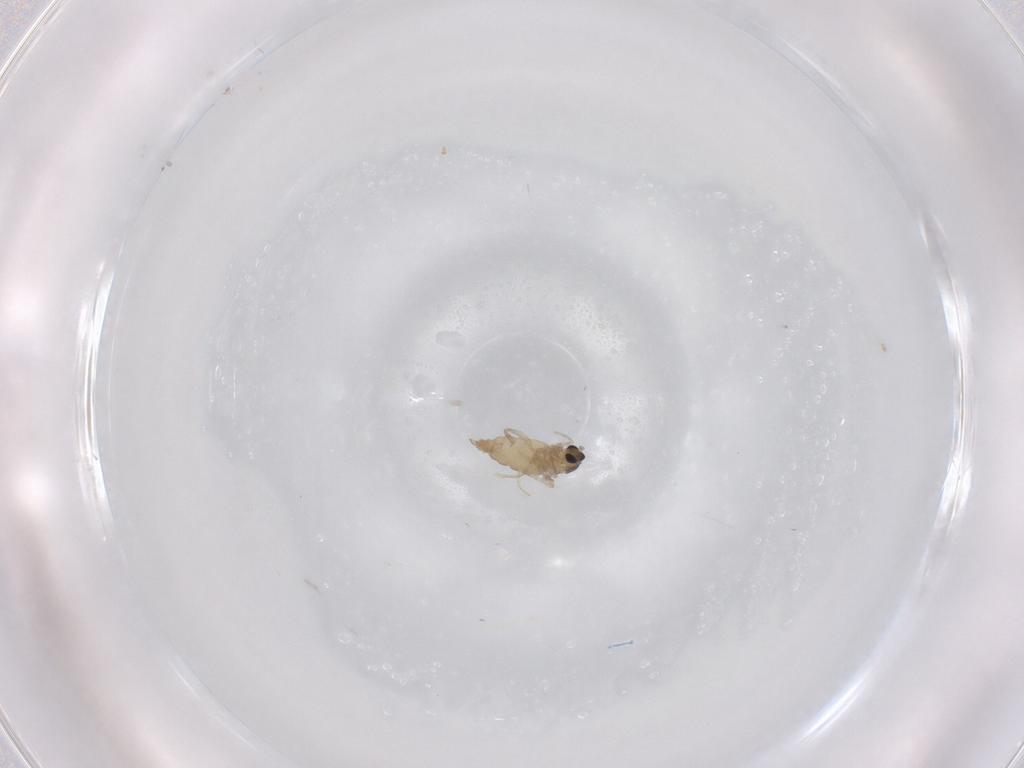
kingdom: Animalia
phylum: Arthropoda
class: Insecta
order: Diptera
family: Cecidomyiidae
